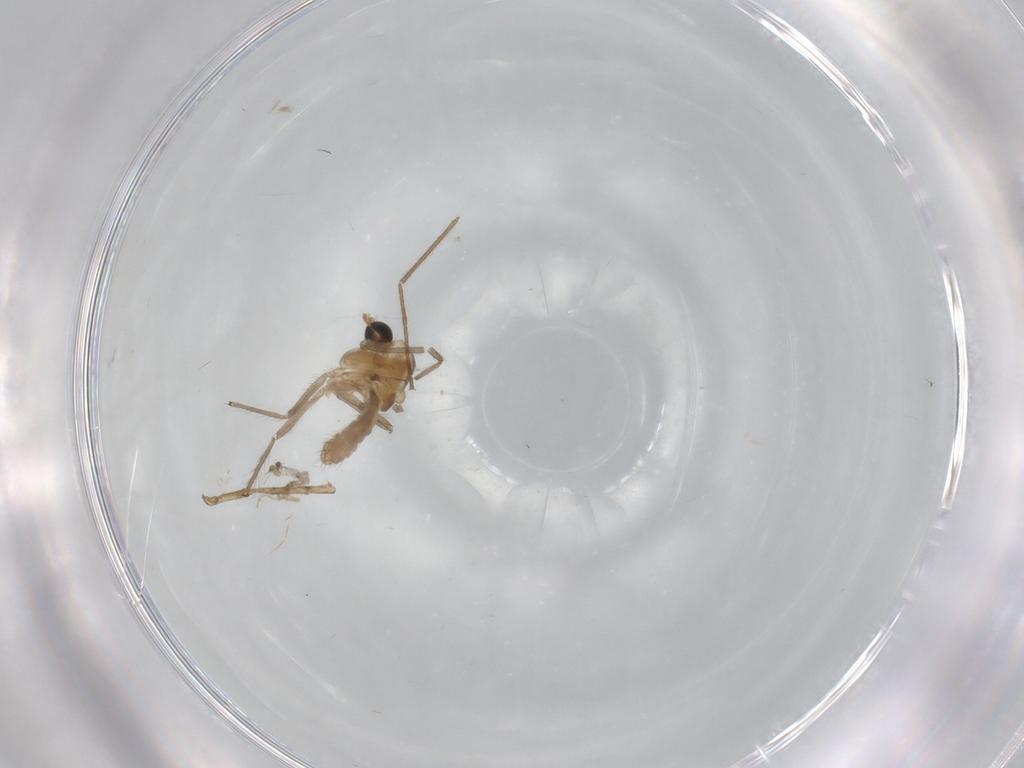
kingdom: Animalia
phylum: Arthropoda
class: Insecta
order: Diptera
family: Chironomidae
